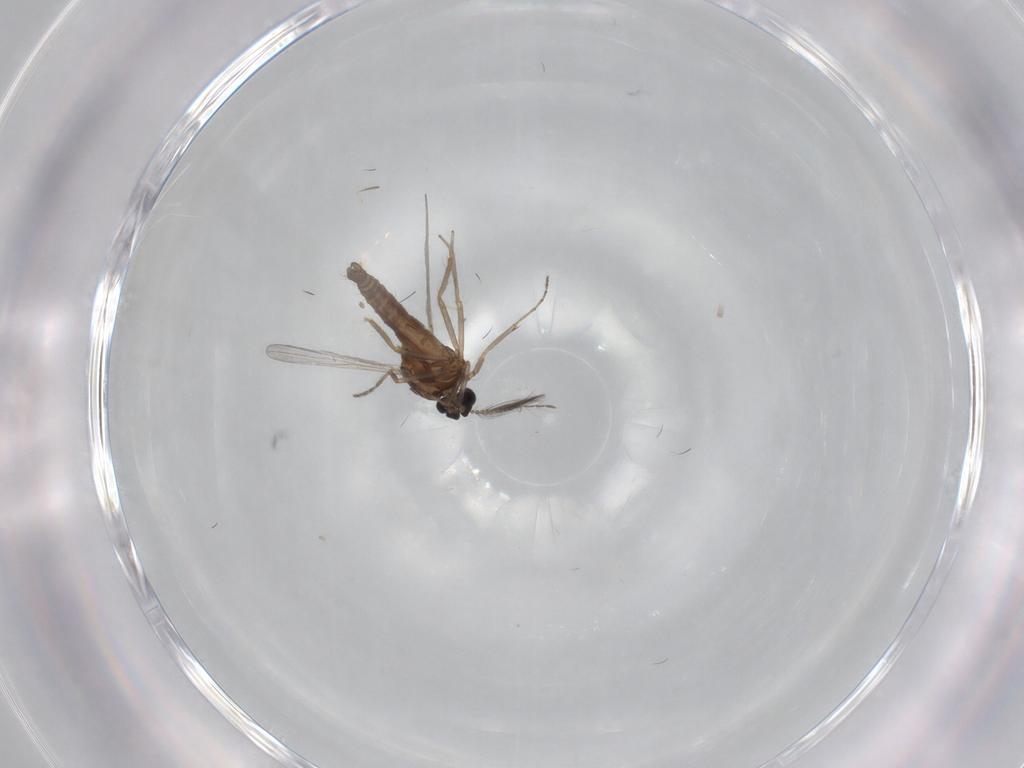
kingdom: Animalia
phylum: Arthropoda
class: Insecta
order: Diptera
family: Ceratopogonidae
